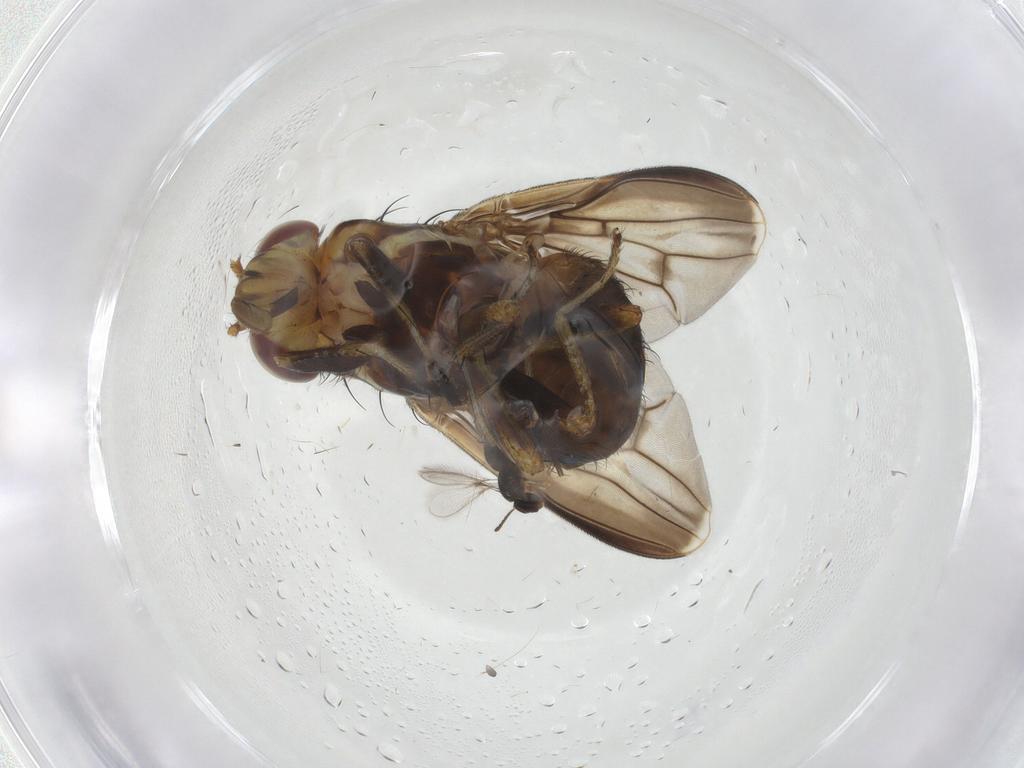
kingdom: Animalia
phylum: Arthropoda
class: Insecta
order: Diptera
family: Lauxaniidae
